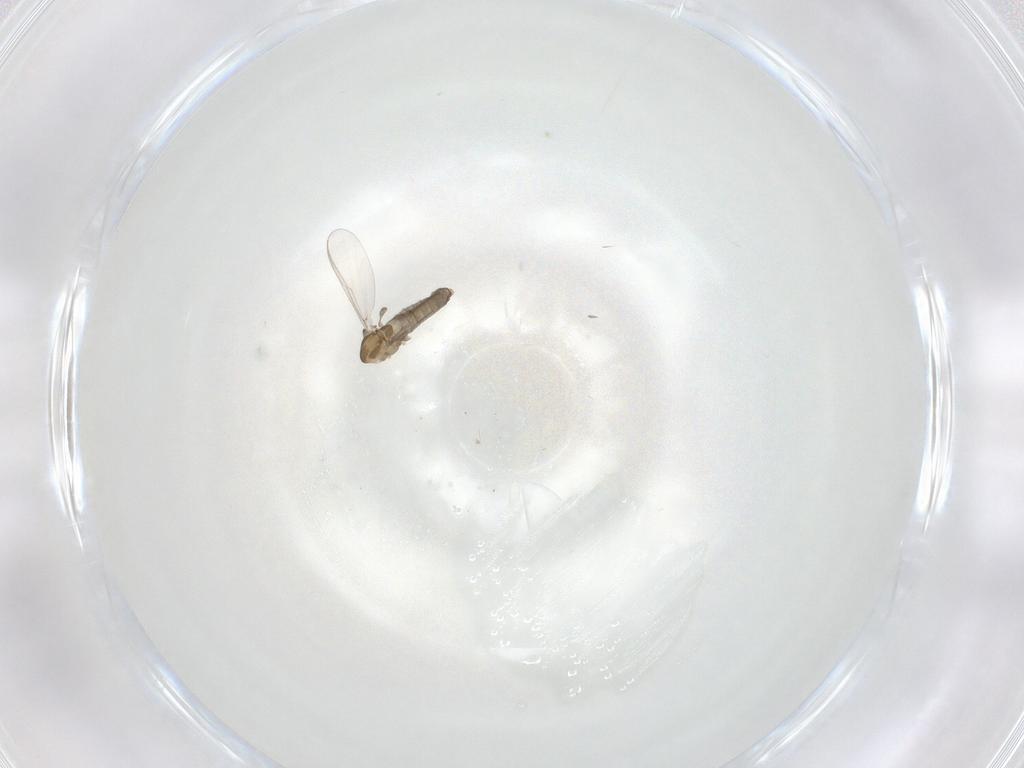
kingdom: Animalia
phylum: Arthropoda
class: Insecta
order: Diptera
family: Chironomidae
